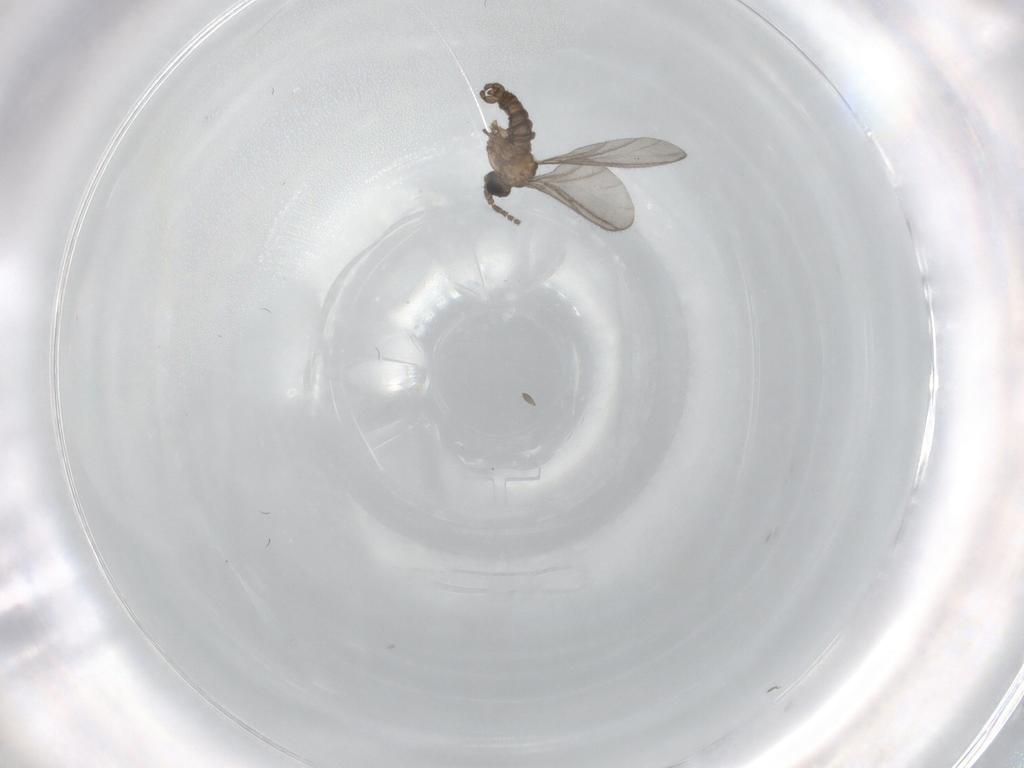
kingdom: Animalia
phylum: Arthropoda
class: Insecta
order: Diptera
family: Sciaridae
